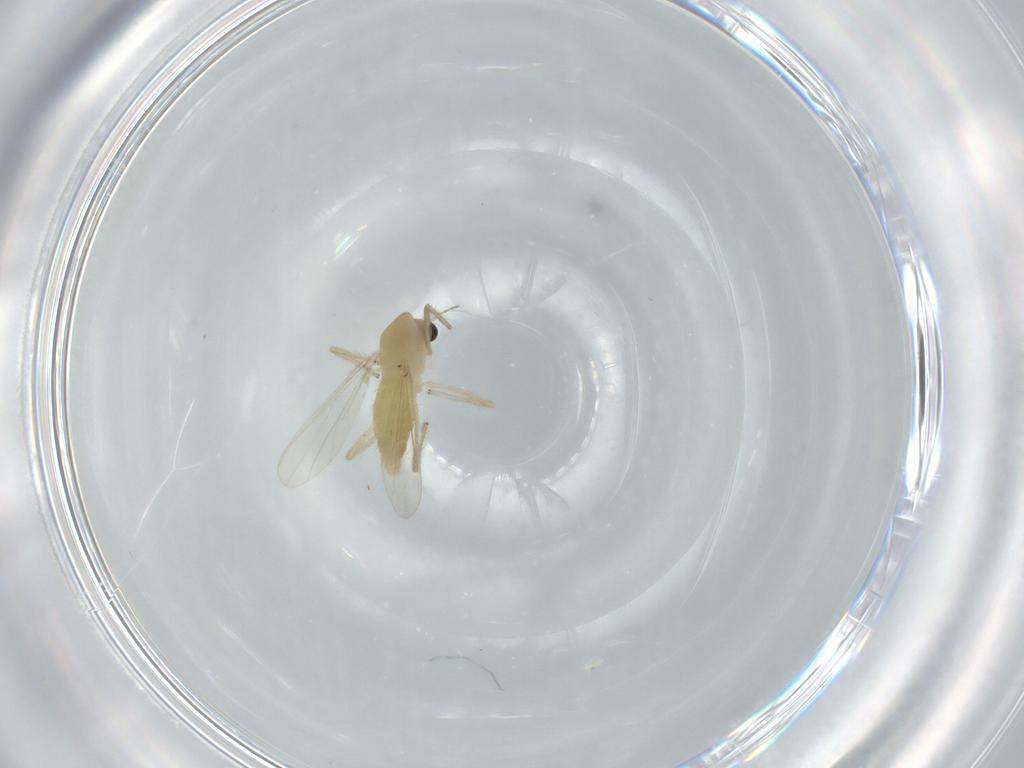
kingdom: Animalia
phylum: Arthropoda
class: Insecta
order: Diptera
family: Chironomidae
